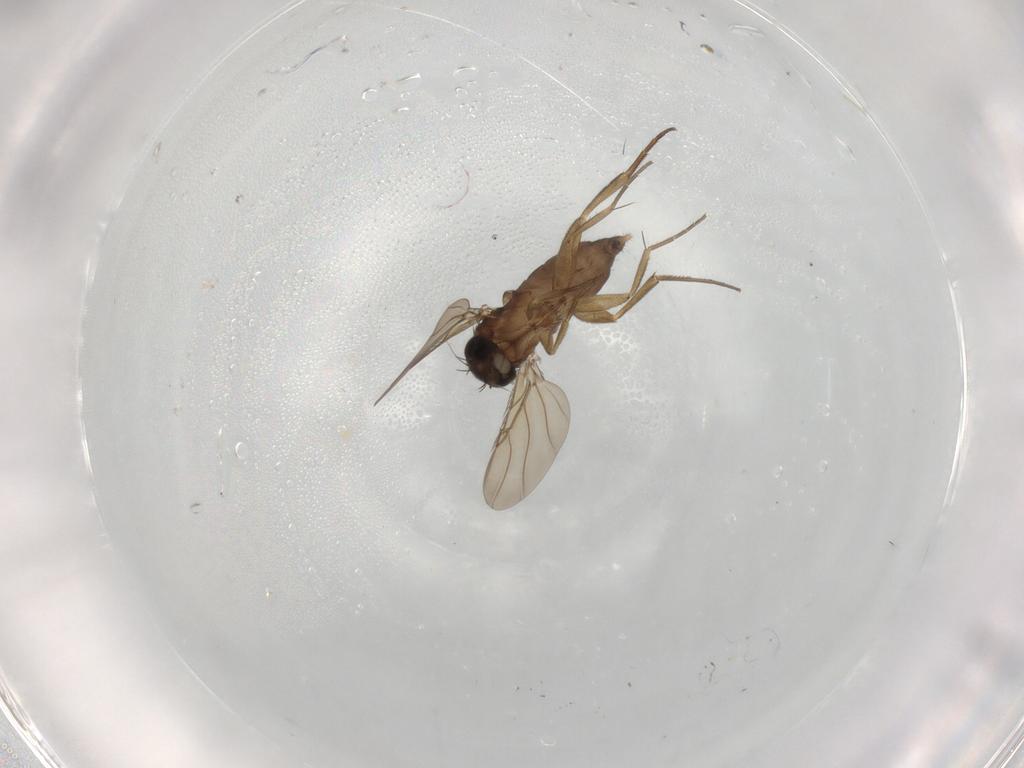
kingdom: Animalia
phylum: Arthropoda
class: Insecta
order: Diptera
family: Phoridae
